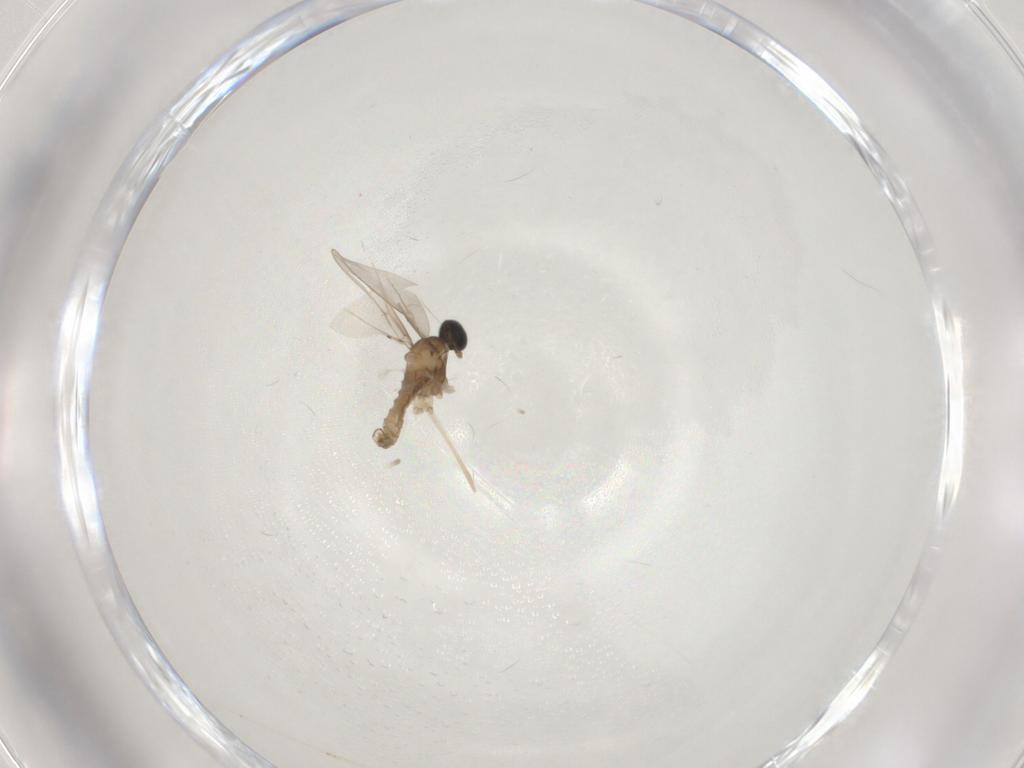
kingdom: Animalia
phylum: Arthropoda
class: Insecta
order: Diptera
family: Cecidomyiidae
